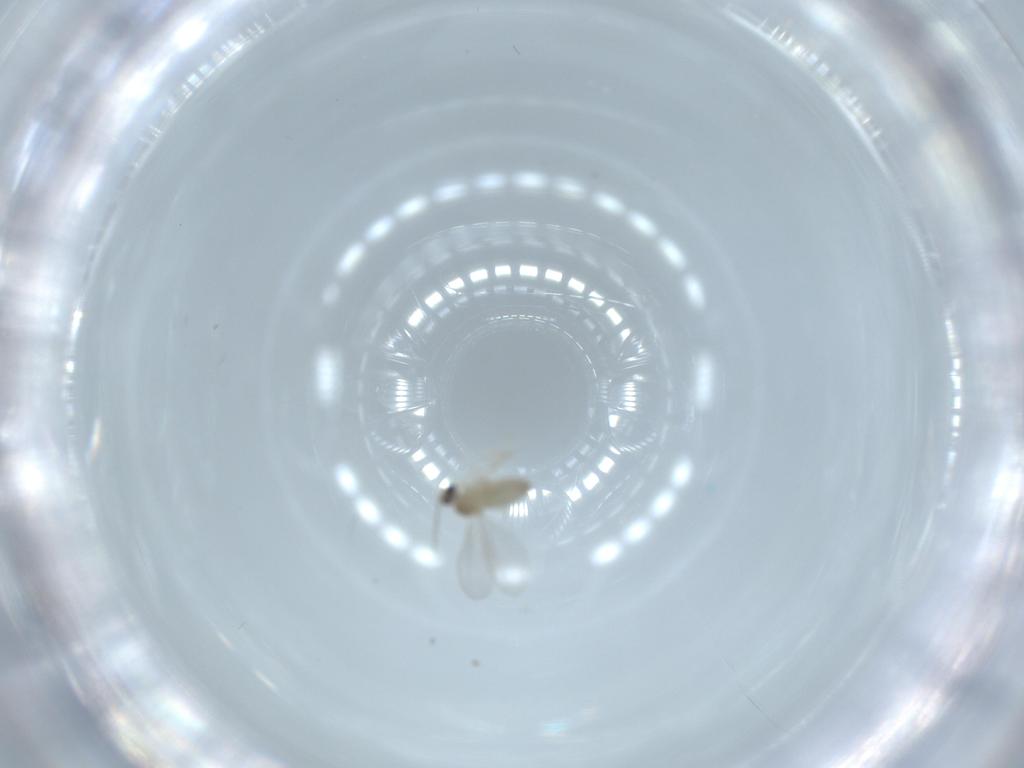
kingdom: Animalia
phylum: Arthropoda
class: Insecta
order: Diptera
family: Cecidomyiidae
